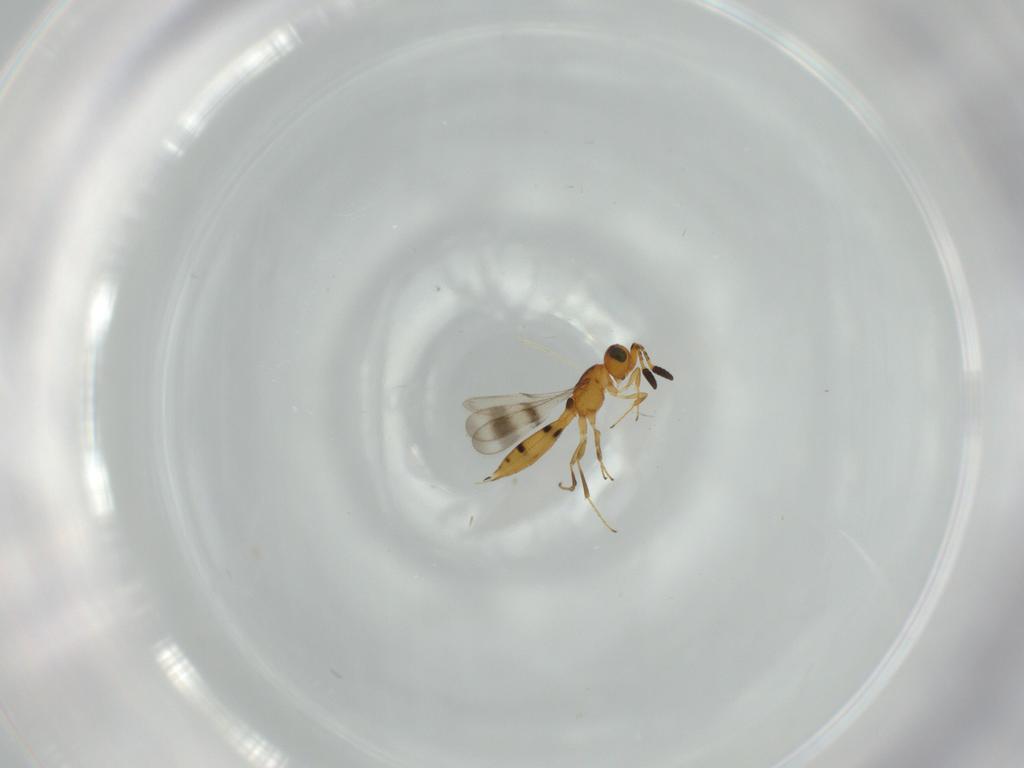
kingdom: Animalia
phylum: Arthropoda
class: Insecta
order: Hymenoptera
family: Scelionidae
